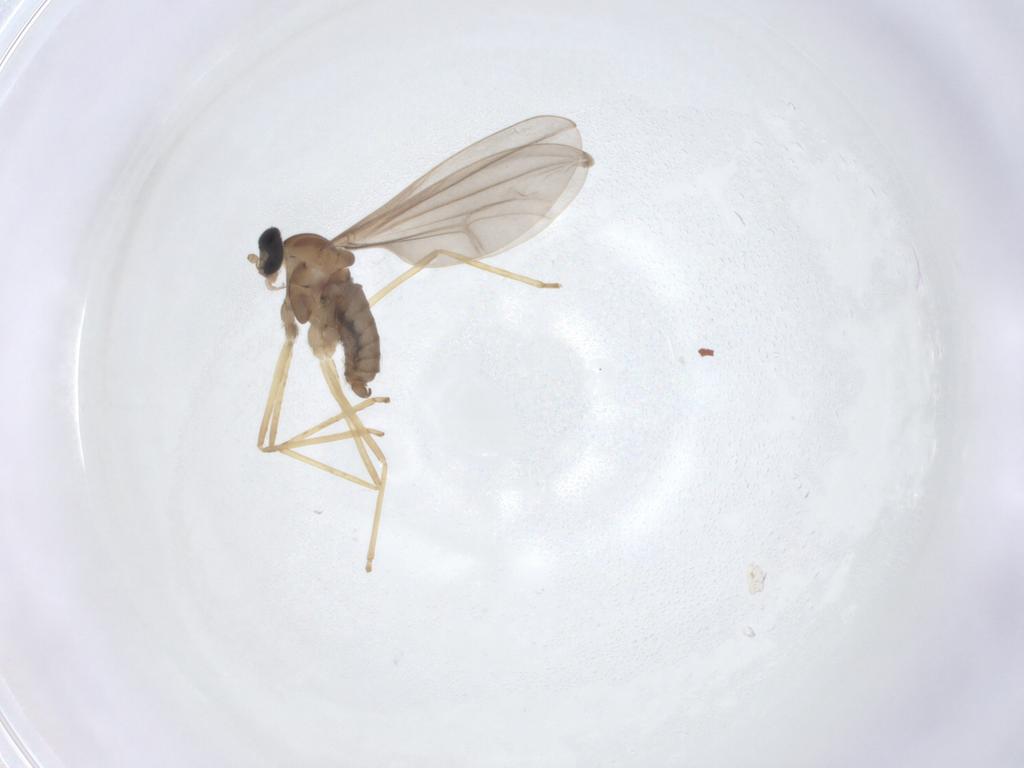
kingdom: Animalia
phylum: Arthropoda
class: Insecta
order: Diptera
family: Cecidomyiidae
